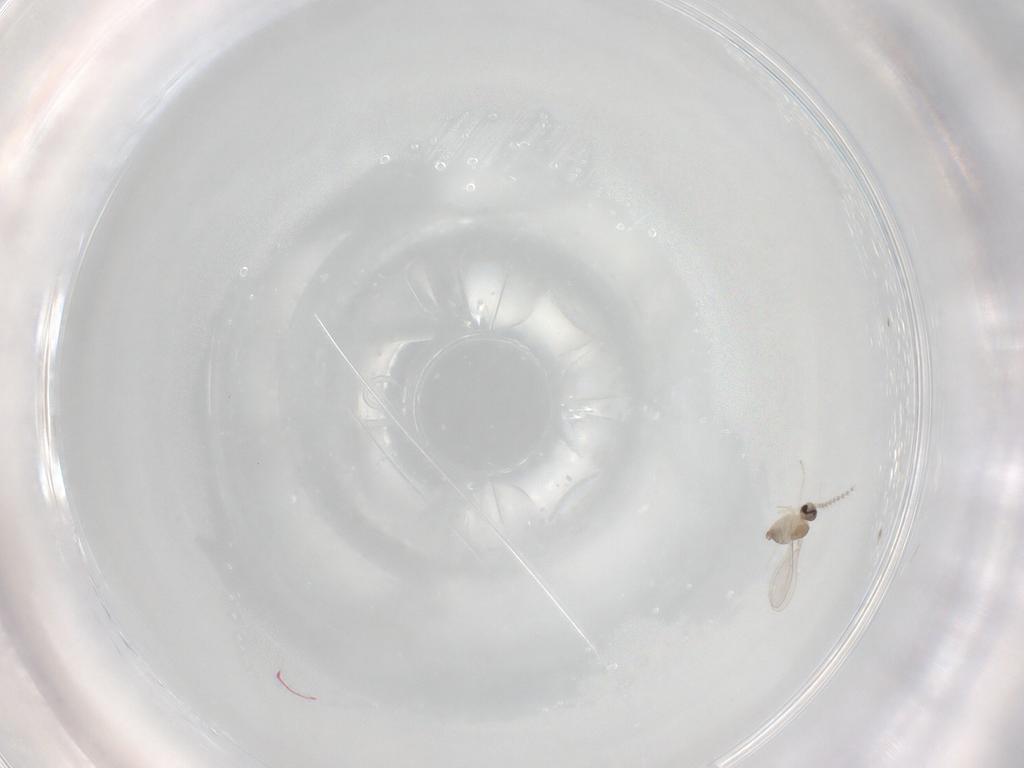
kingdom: Animalia
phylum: Arthropoda
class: Insecta
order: Diptera
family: Cecidomyiidae
